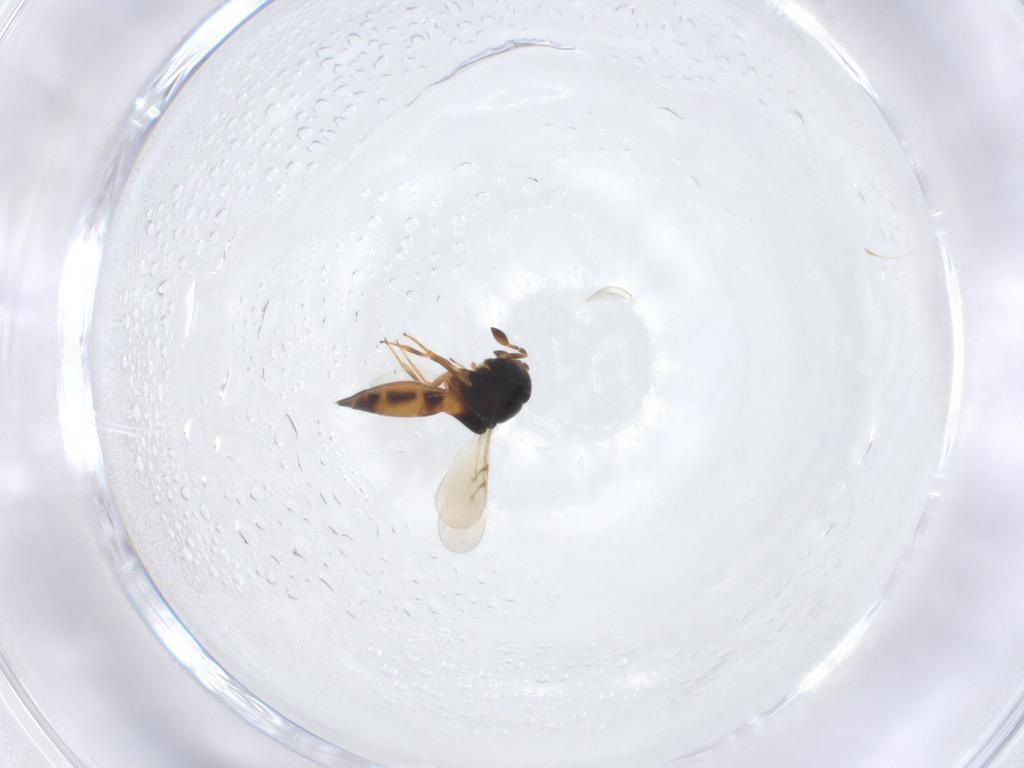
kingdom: Animalia
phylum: Arthropoda
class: Insecta
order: Hymenoptera
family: Scelionidae
